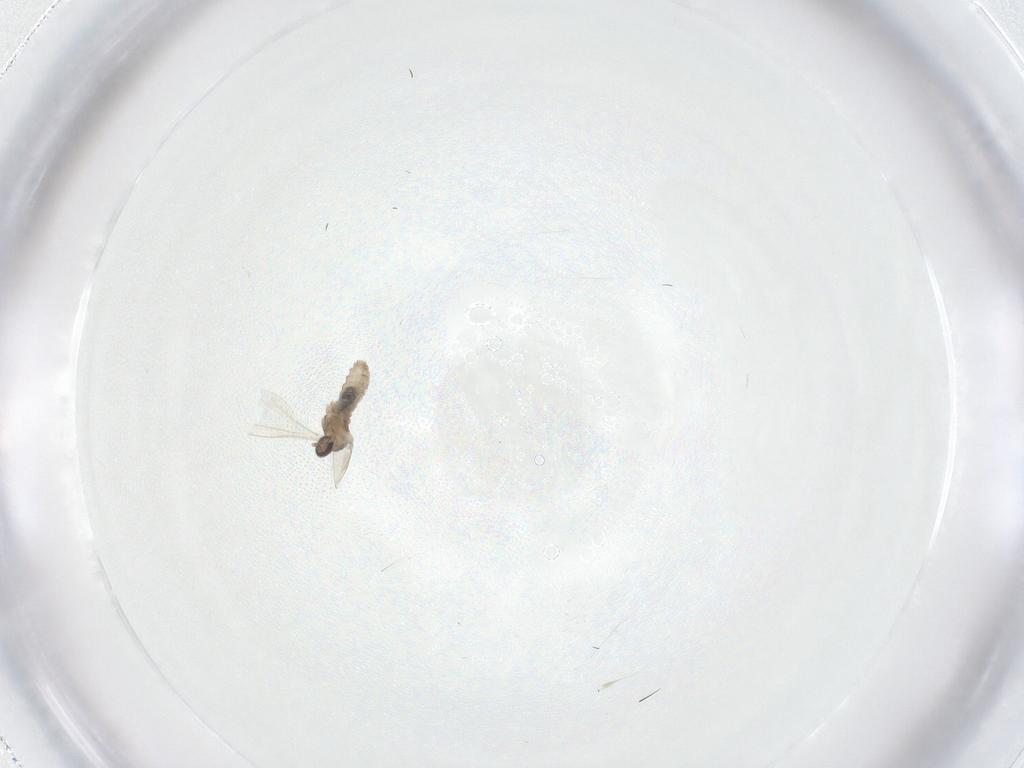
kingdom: Animalia
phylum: Arthropoda
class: Insecta
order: Diptera
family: Cecidomyiidae
